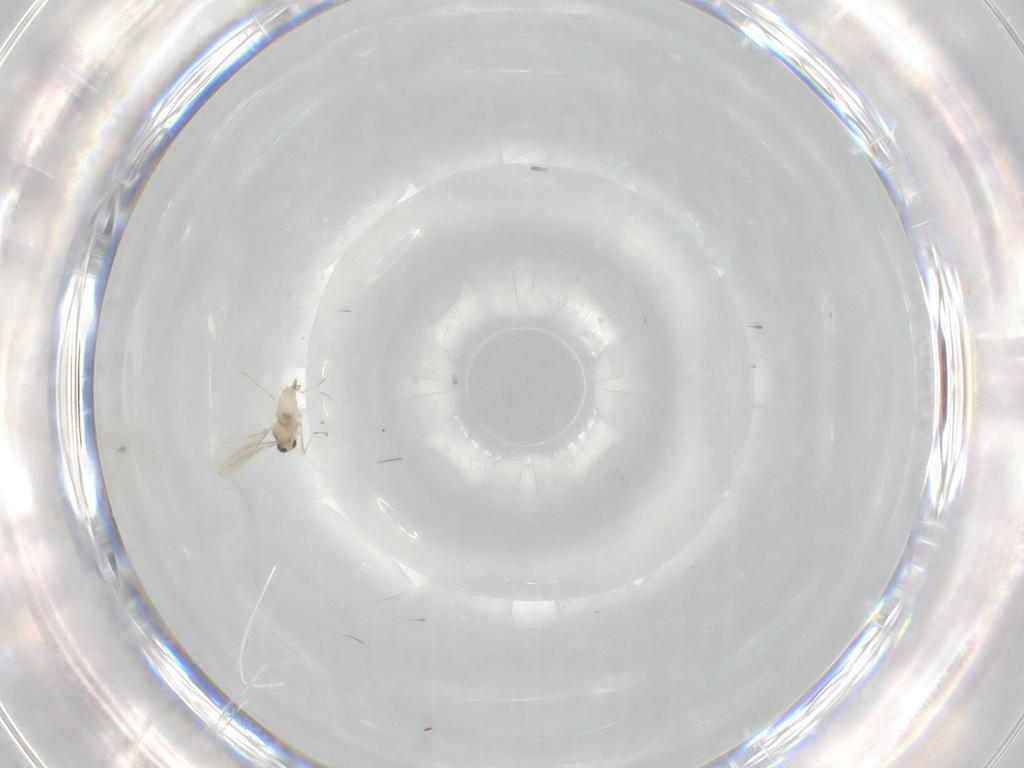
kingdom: Animalia
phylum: Arthropoda
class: Insecta
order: Diptera
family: Cecidomyiidae
